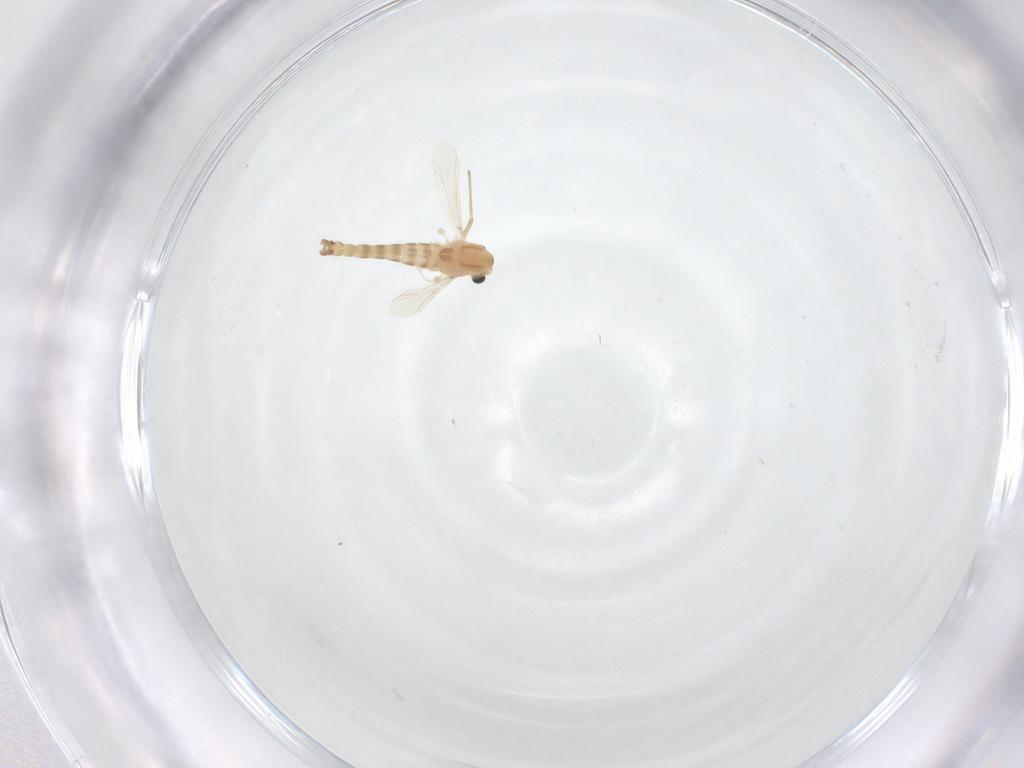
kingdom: Animalia
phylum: Arthropoda
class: Insecta
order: Diptera
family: Chironomidae
